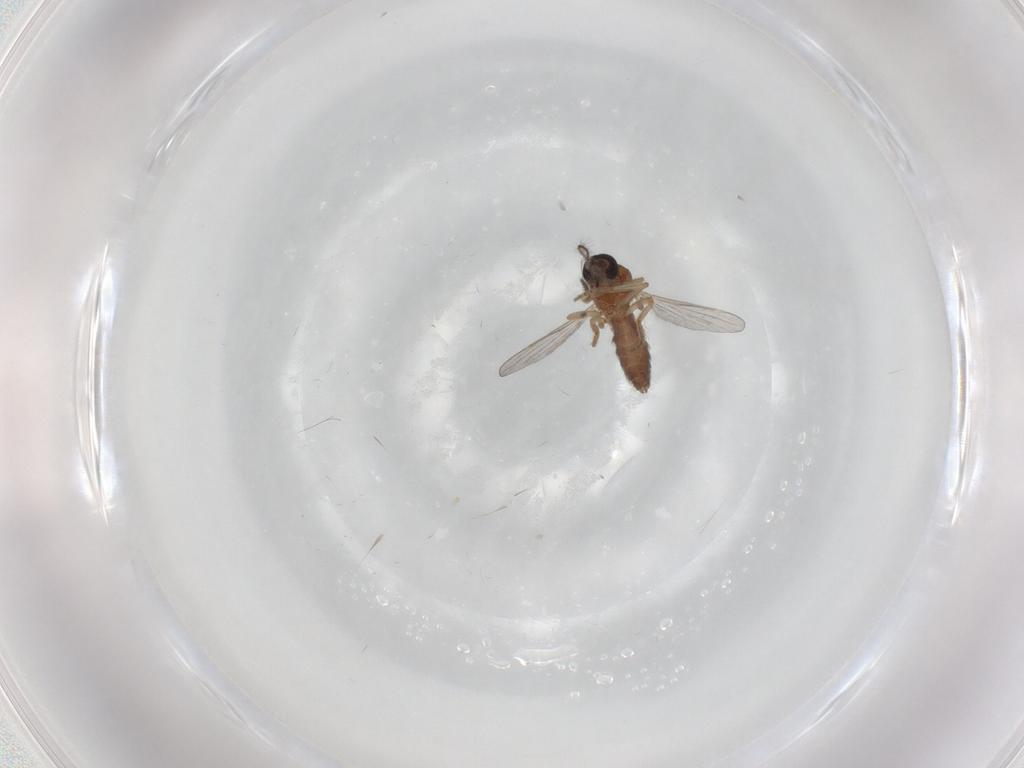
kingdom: Animalia
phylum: Arthropoda
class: Insecta
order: Diptera
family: Ceratopogonidae
